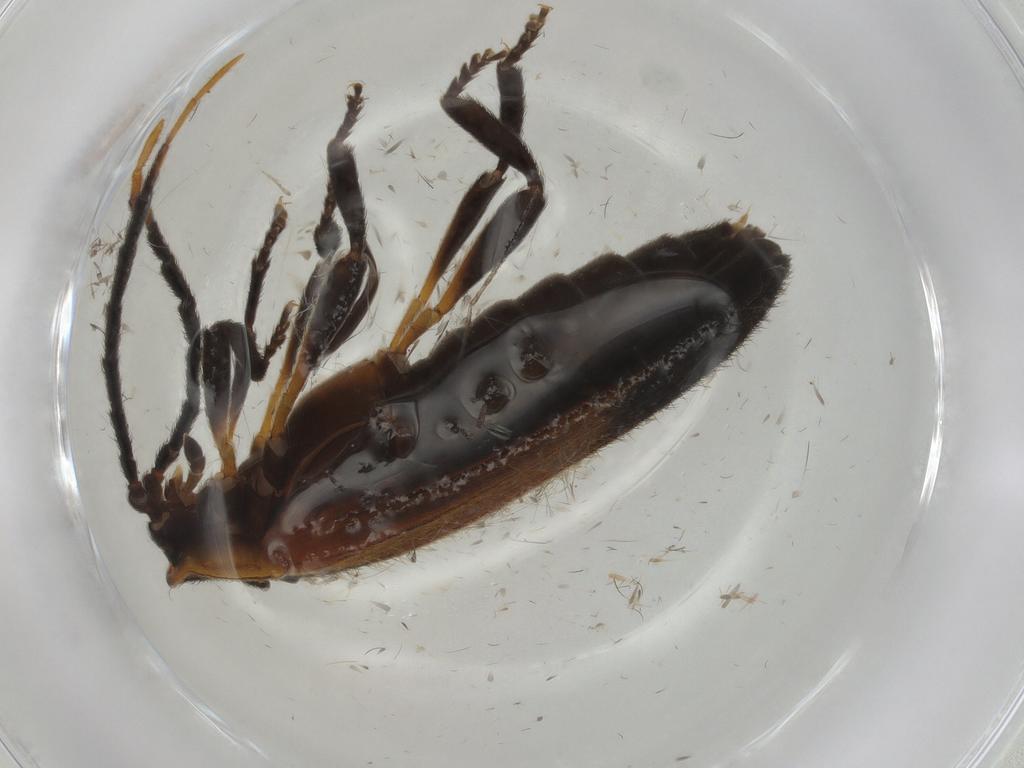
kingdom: Animalia
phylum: Arthropoda
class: Insecta
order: Coleoptera
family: Lycidae
